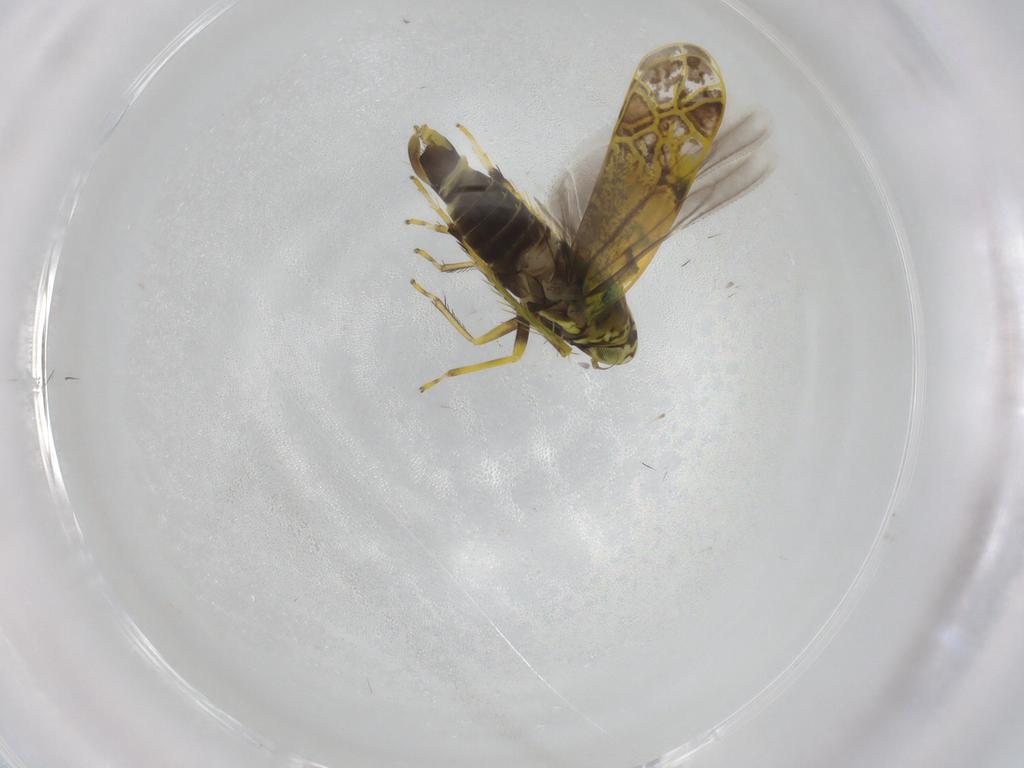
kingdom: Animalia
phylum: Arthropoda
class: Insecta
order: Hemiptera
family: Cicadellidae
